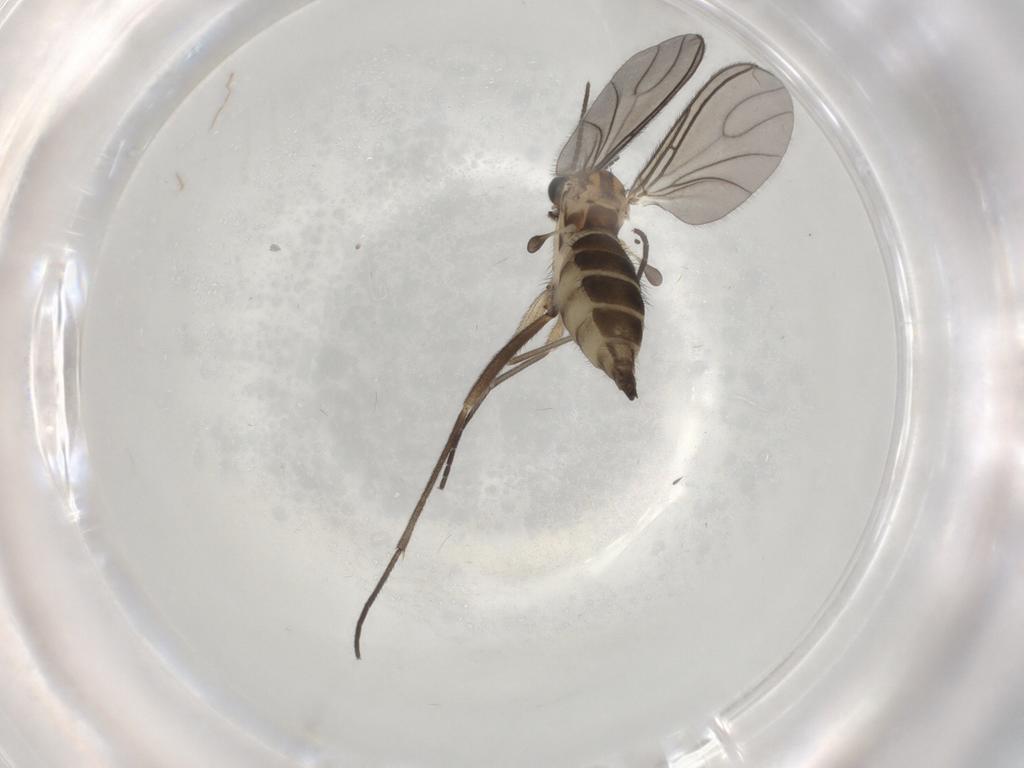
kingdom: Animalia
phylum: Arthropoda
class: Insecta
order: Diptera
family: Sciaridae
